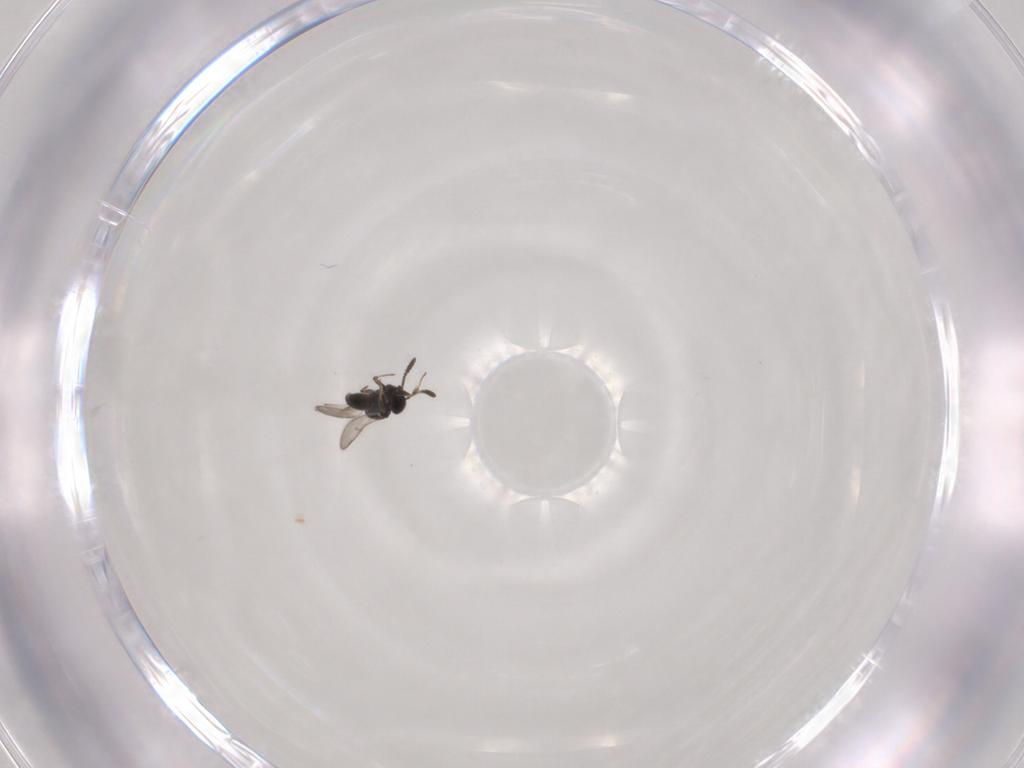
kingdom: Animalia
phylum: Arthropoda
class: Insecta
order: Hymenoptera
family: Scelionidae
